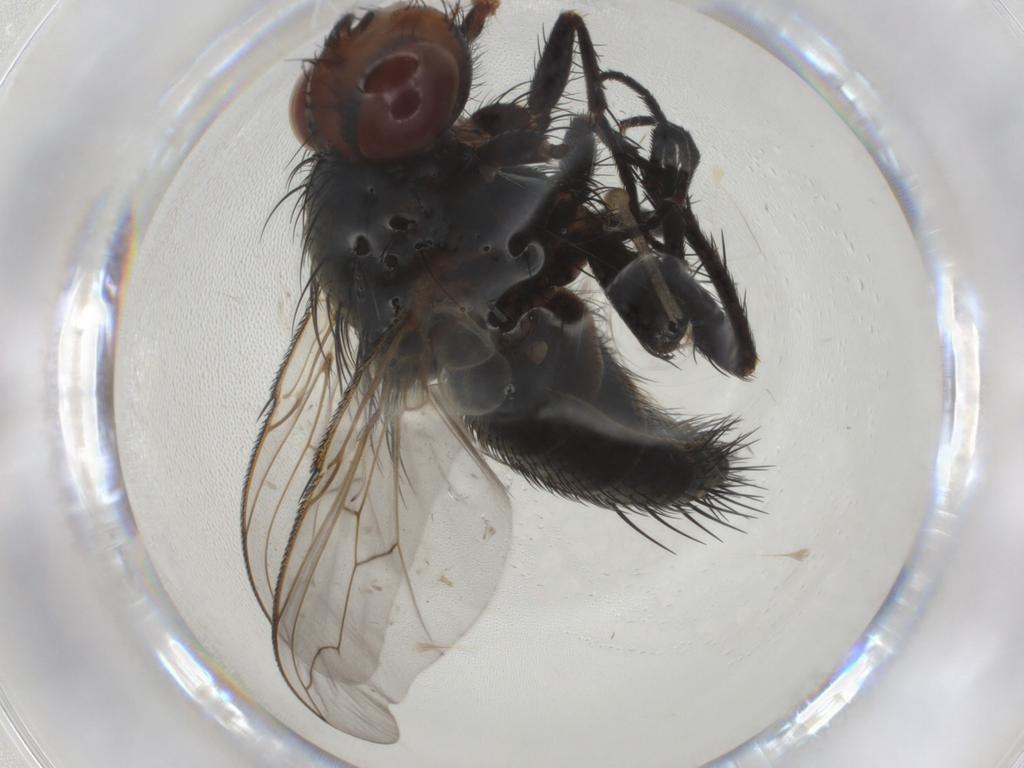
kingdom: Animalia
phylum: Arthropoda
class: Insecta
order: Diptera
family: Tachinidae
